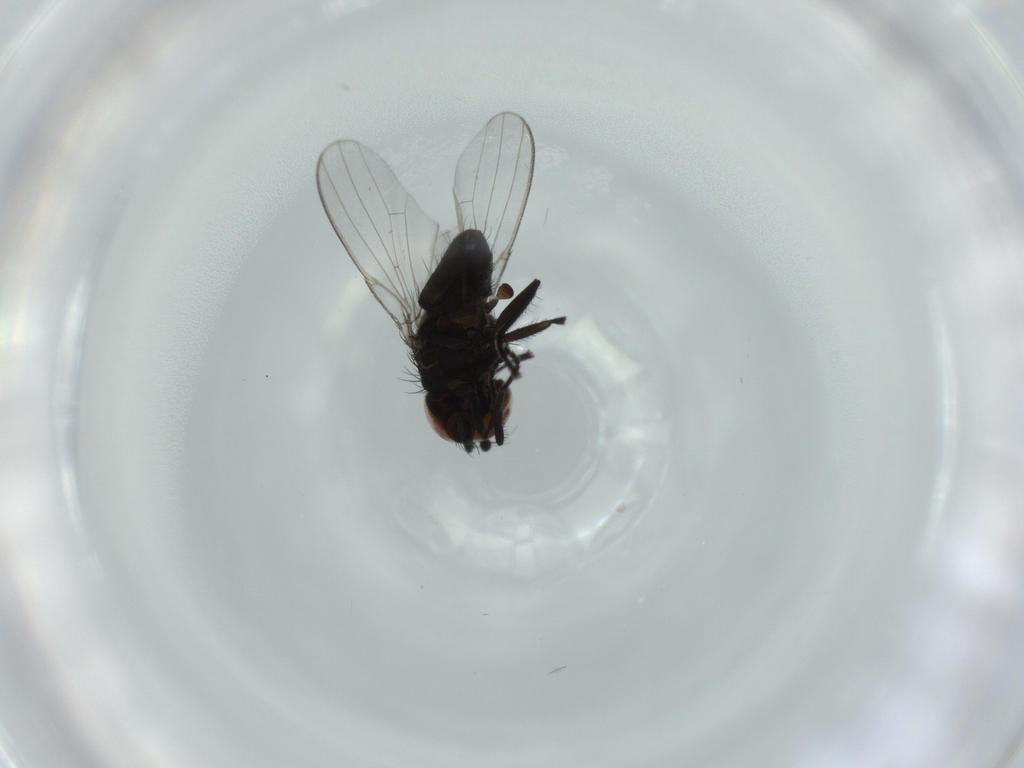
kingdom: Animalia
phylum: Arthropoda
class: Insecta
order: Diptera
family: Milichiidae
